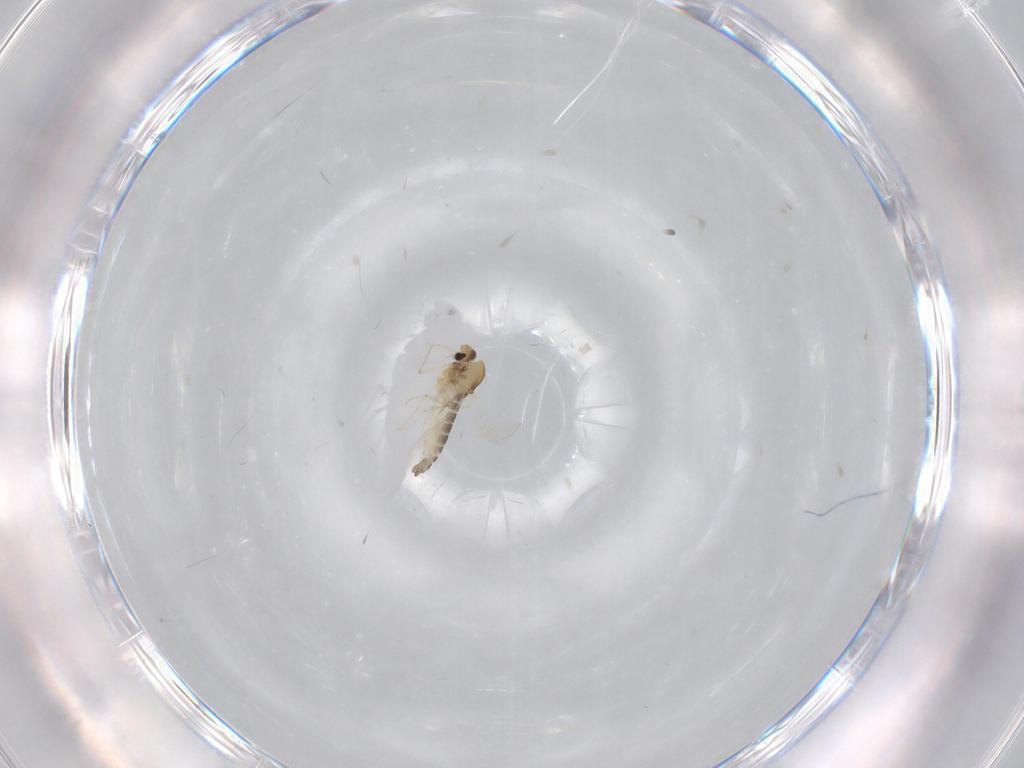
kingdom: Animalia
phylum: Arthropoda
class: Insecta
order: Diptera
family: Chironomidae
